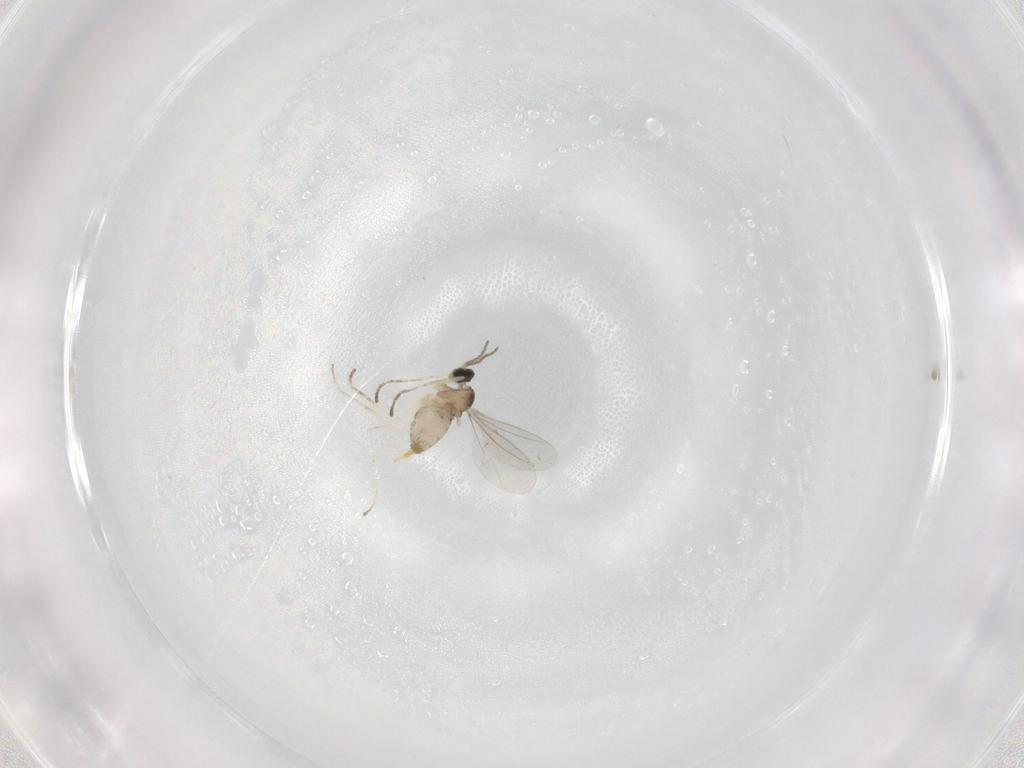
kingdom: Animalia
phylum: Arthropoda
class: Insecta
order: Diptera
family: Cecidomyiidae
